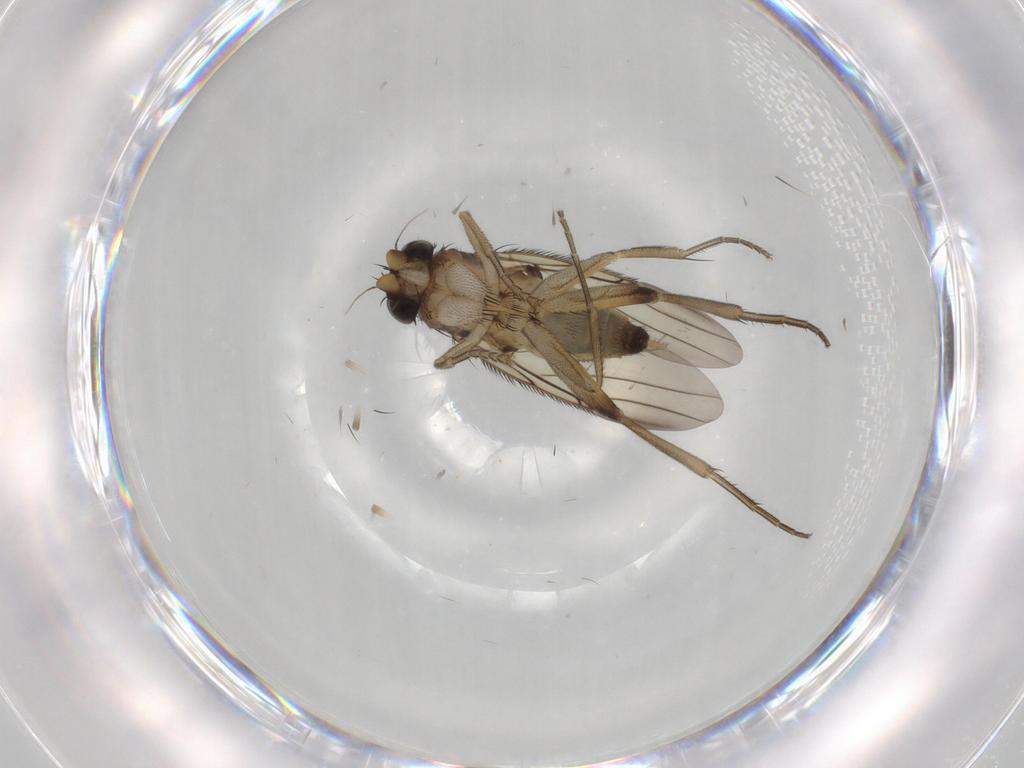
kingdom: Animalia
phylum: Arthropoda
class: Insecta
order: Diptera
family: Phoridae
